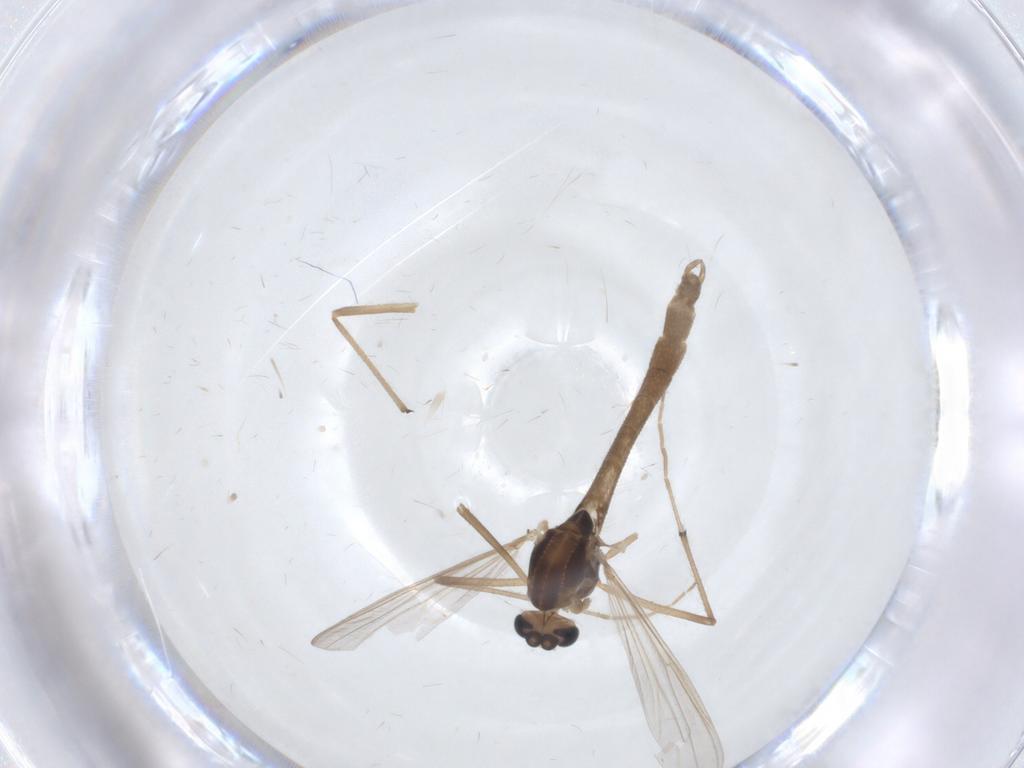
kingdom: Animalia
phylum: Arthropoda
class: Insecta
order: Diptera
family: Chironomidae
